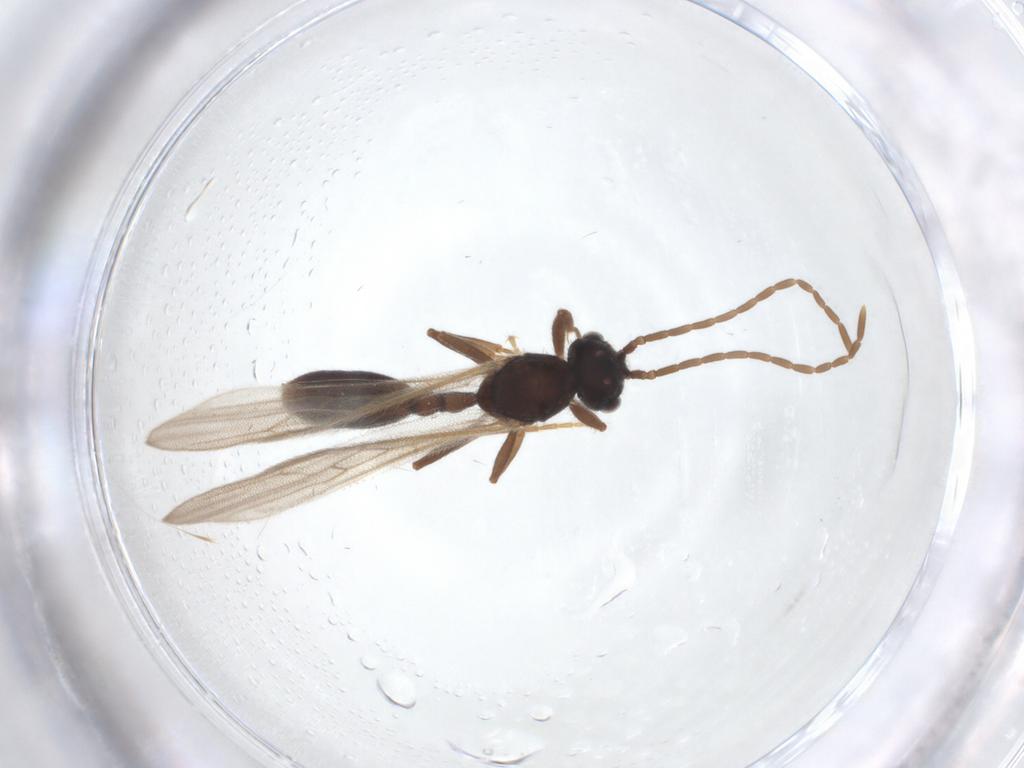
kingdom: Animalia
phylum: Arthropoda
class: Insecta
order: Hymenoptera
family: Formicidae
